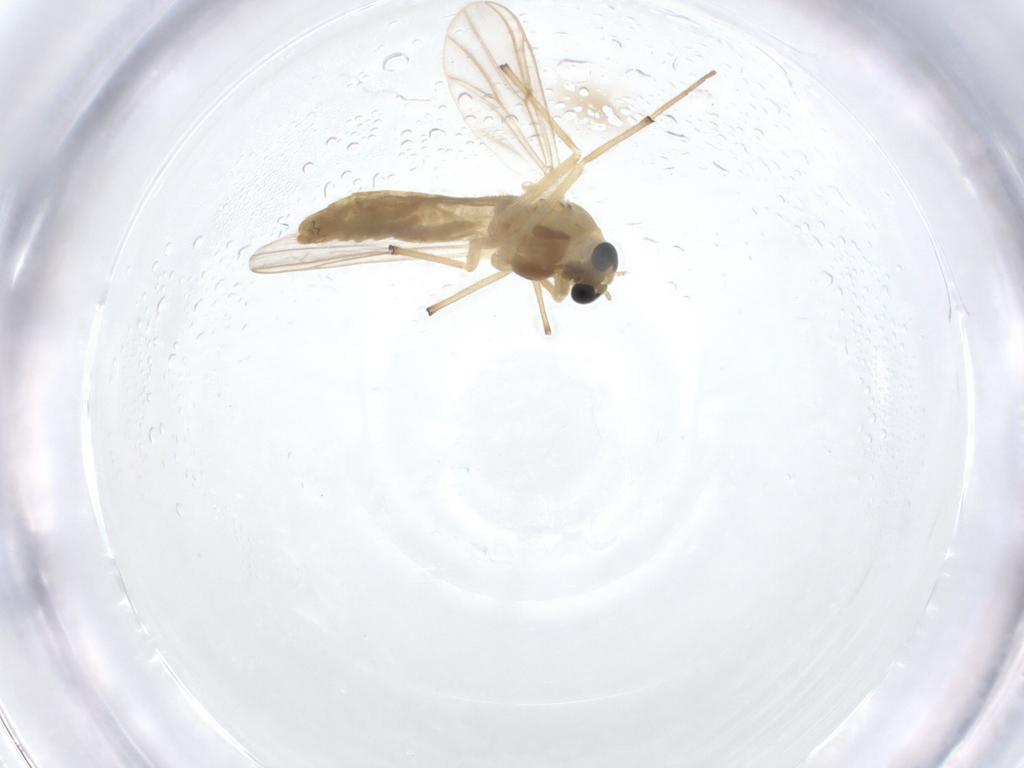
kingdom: Animalia
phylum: Arthropoda
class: Insecta
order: Diptera
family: Chironomidae
